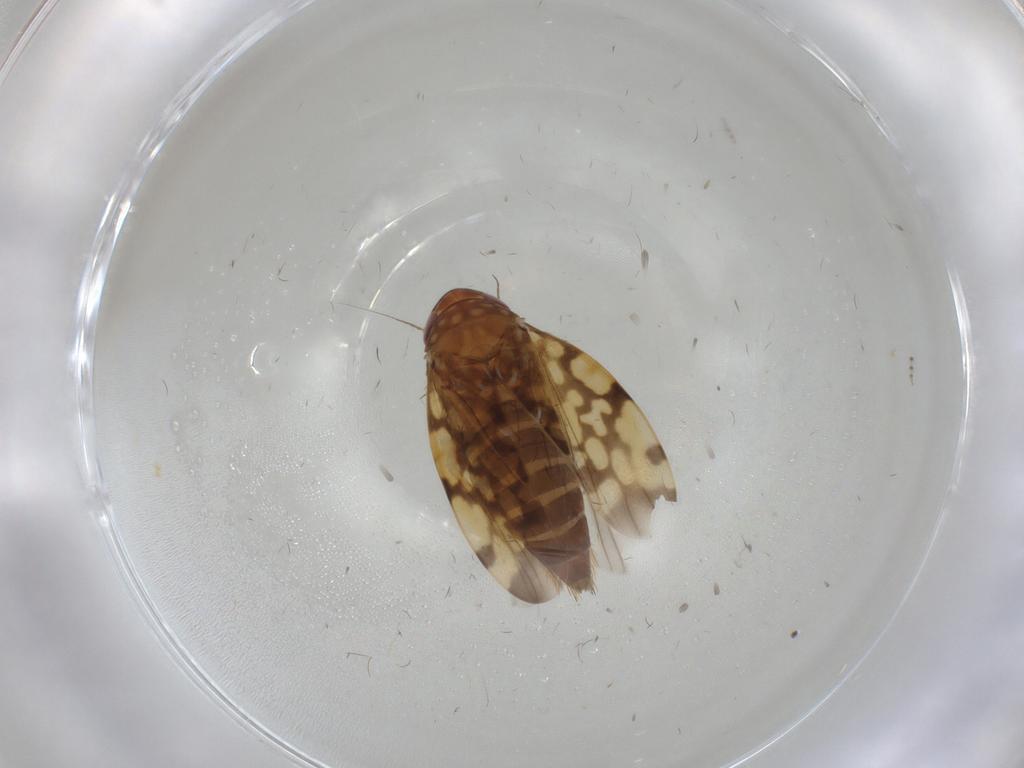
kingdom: Animalia
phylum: Arthropoda
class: Insecta
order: Hemiptera
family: Cicadellidae
